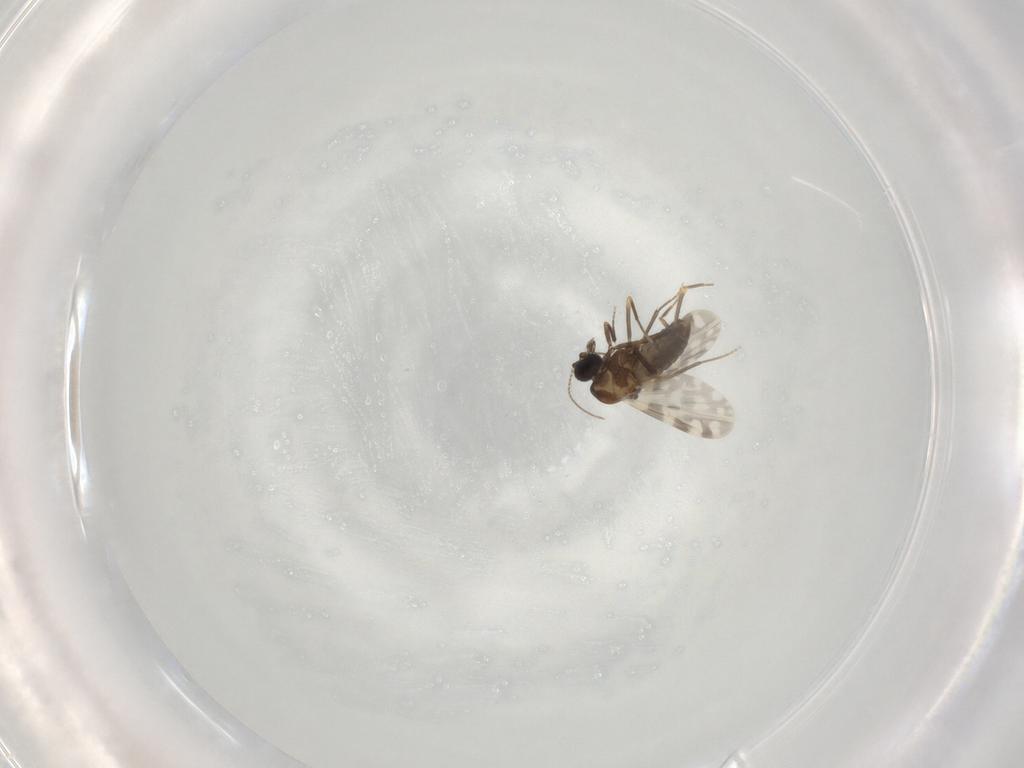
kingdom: Animalia
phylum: Arthropoda
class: Insecta
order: Diptera
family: Ceratopogonidae
